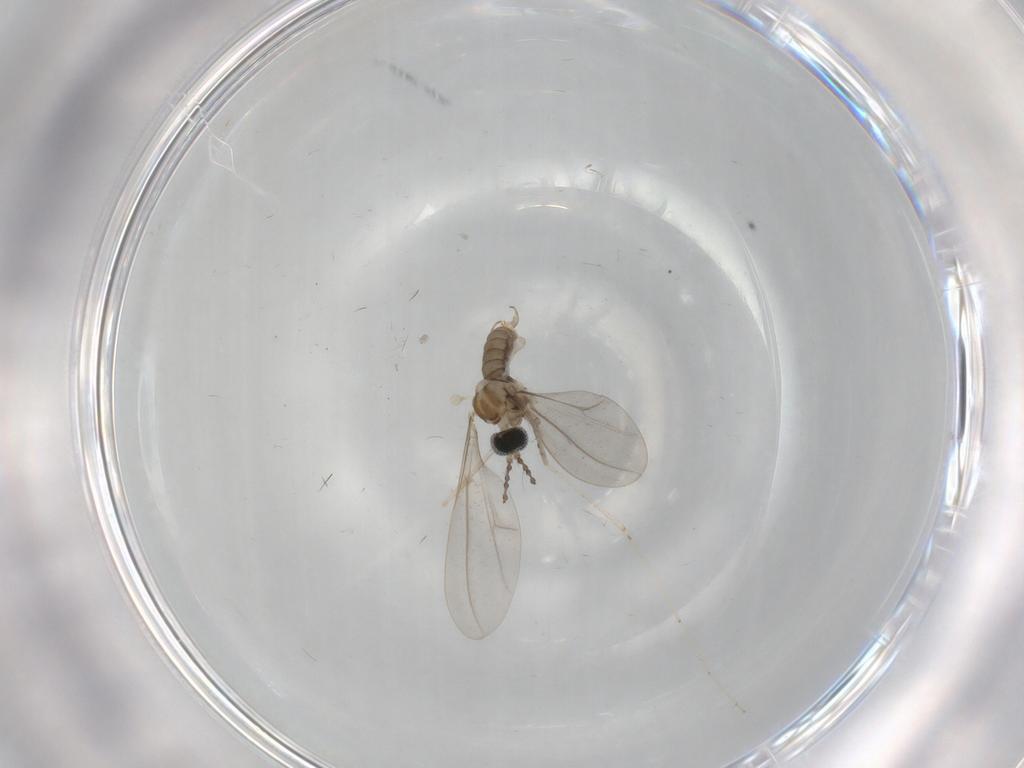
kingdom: Animalia
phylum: Arthropoda
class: Insecta
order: Diptera
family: Cecidomyiidae
